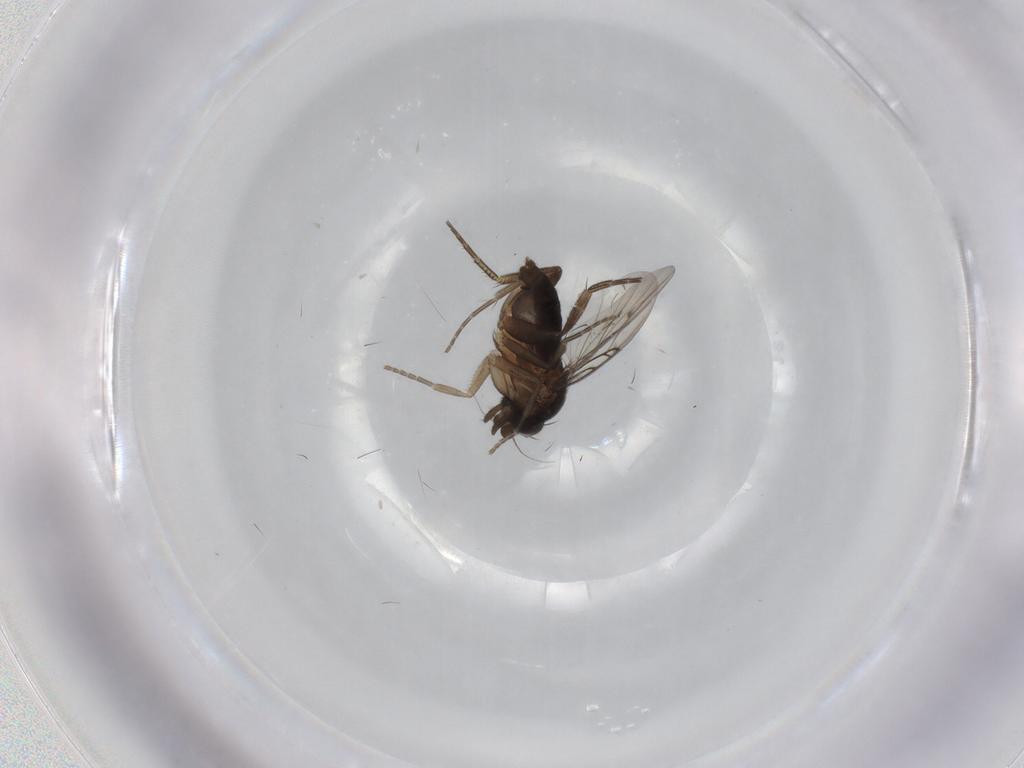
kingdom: Animalia
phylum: Arthropoda
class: Insecta
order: Diptera
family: Phoridae
